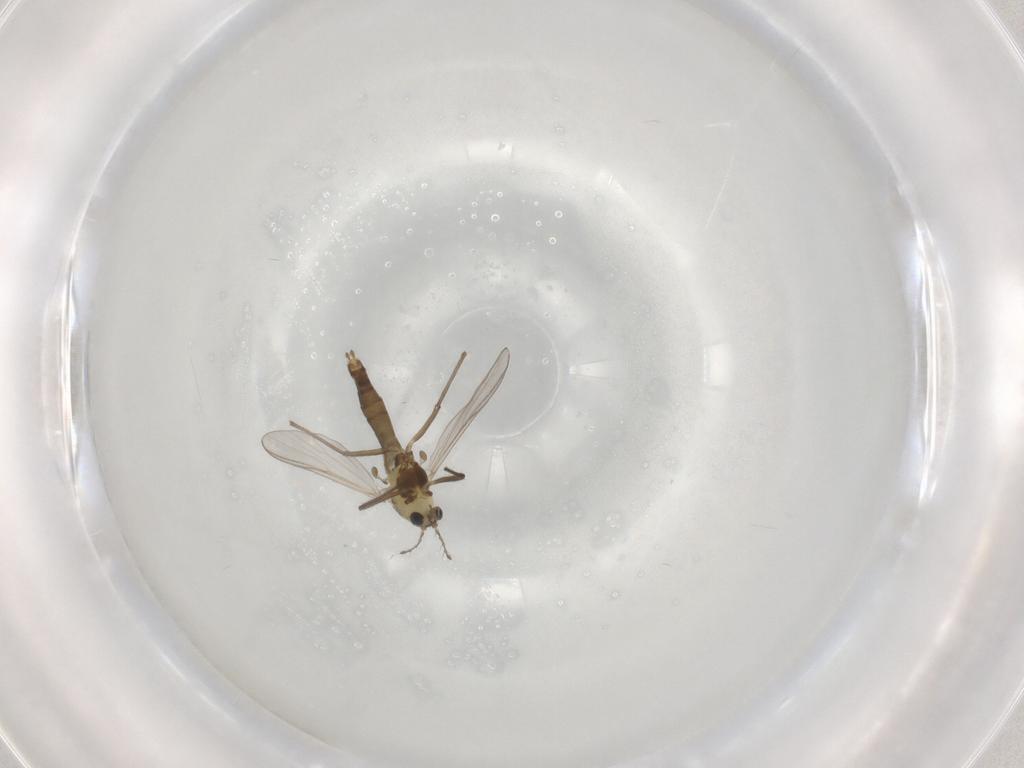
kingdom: Animalia
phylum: Arthropoda
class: Insecta
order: Diptera
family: Chironomidae
